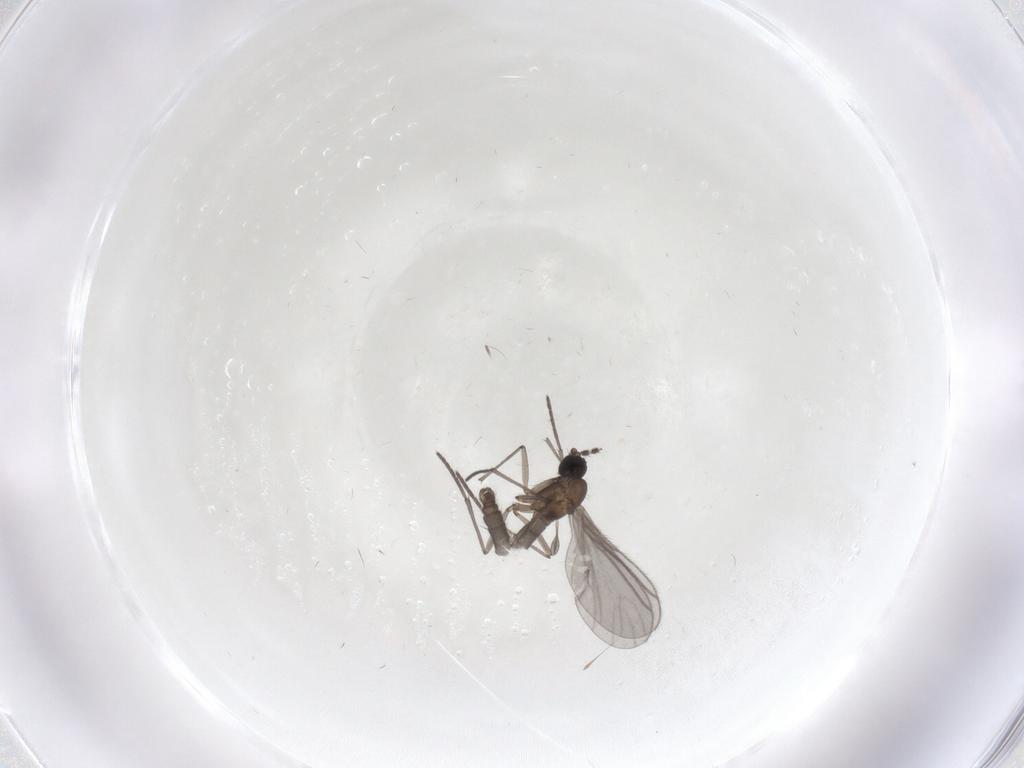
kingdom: Animalia
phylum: Arthropoda
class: Insecta
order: Diptera
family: Sciaridae
